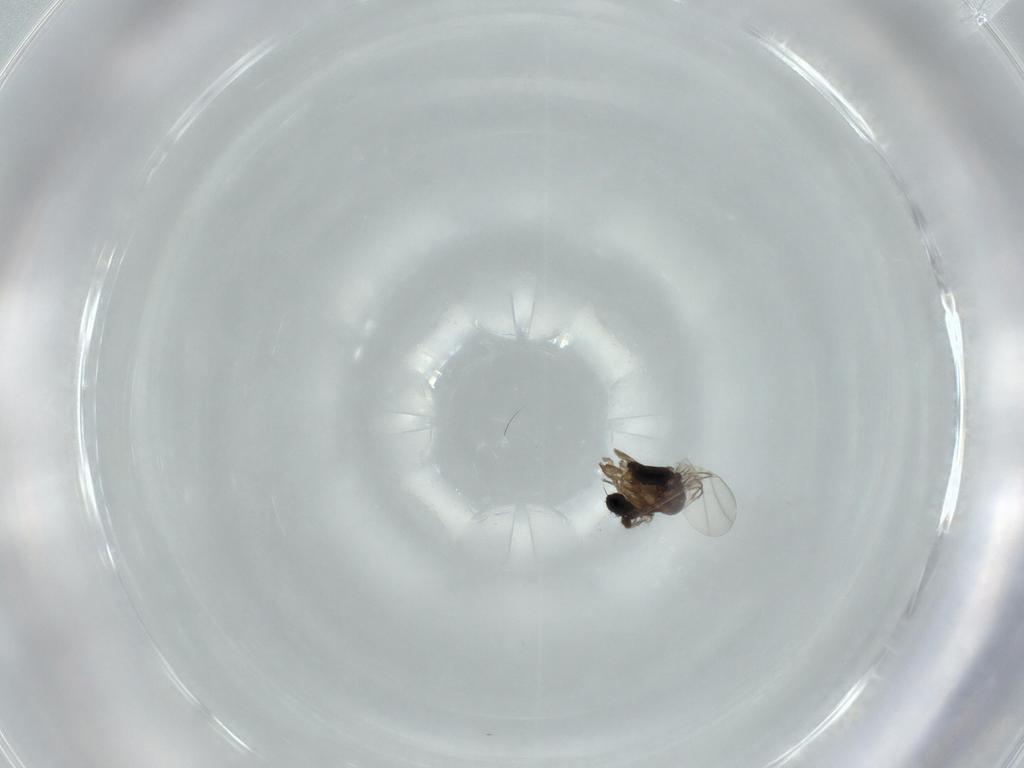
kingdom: Animalia
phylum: Arthropoda
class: Insecta
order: Diptera
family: Phoridae
